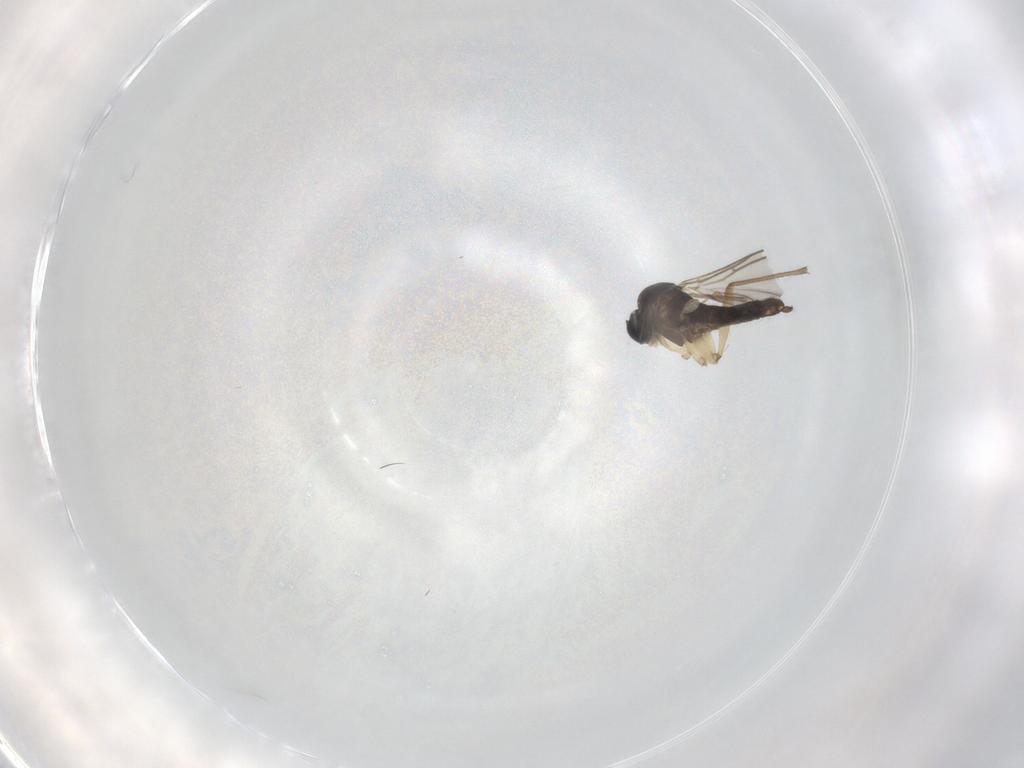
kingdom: Animalia
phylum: Arthropoda
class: Insecta
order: Diptera
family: Sciaridae
